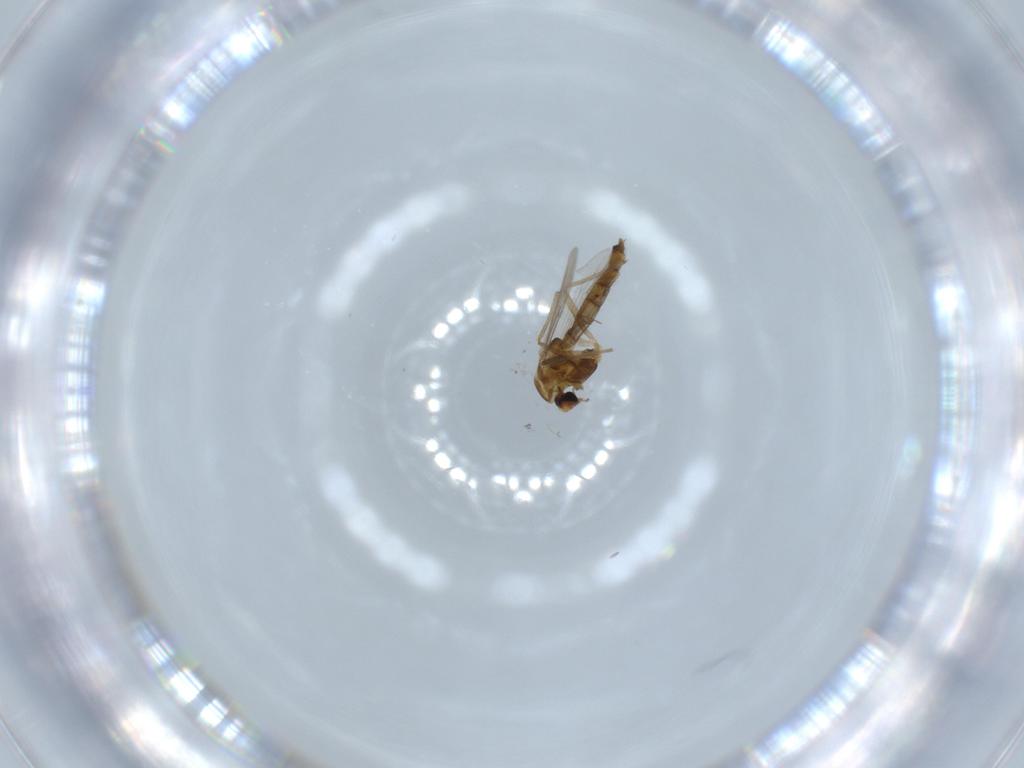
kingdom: Animalia
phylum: Arthropoda
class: Insecta
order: Diptera
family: Chironomidae
